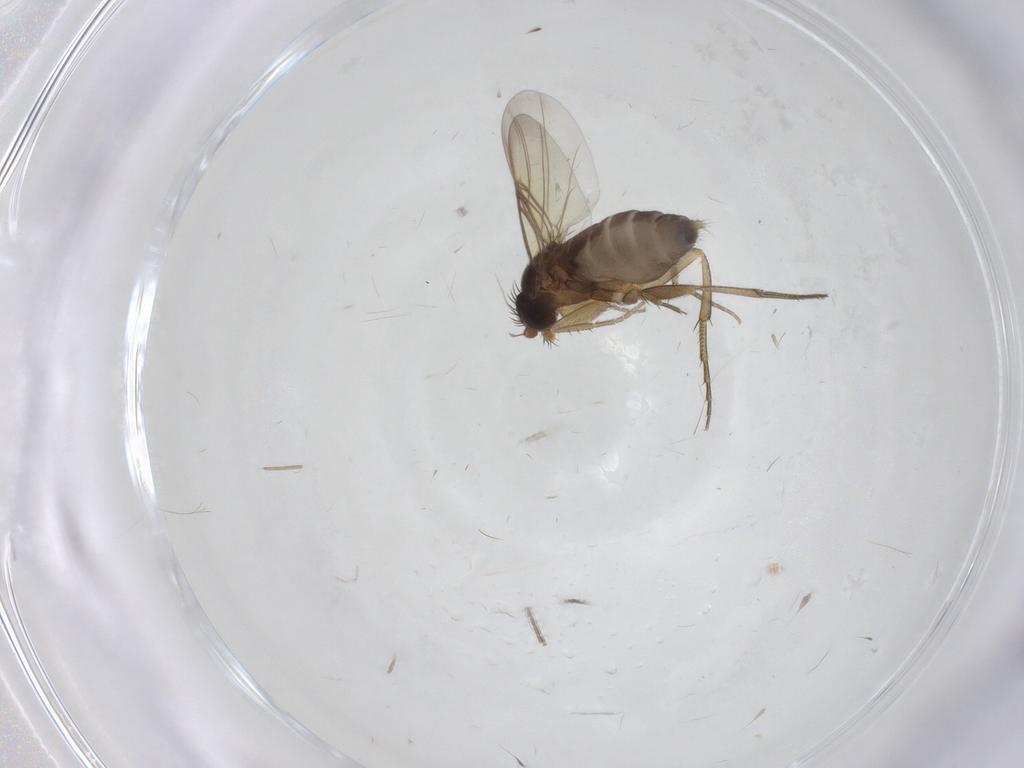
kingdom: Animalia
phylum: Arthropoda
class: Insecta
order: Diptera
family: Phoridae
